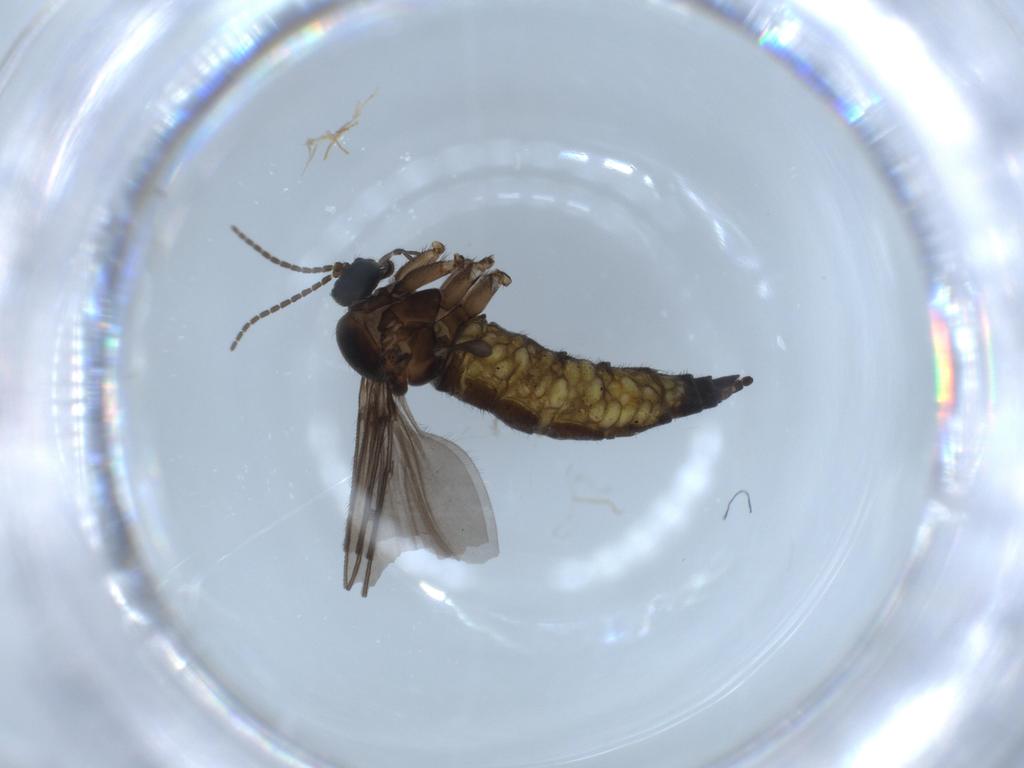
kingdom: Animalia
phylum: Arthropoda
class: Insecta
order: Diptera
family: Sciaridae
